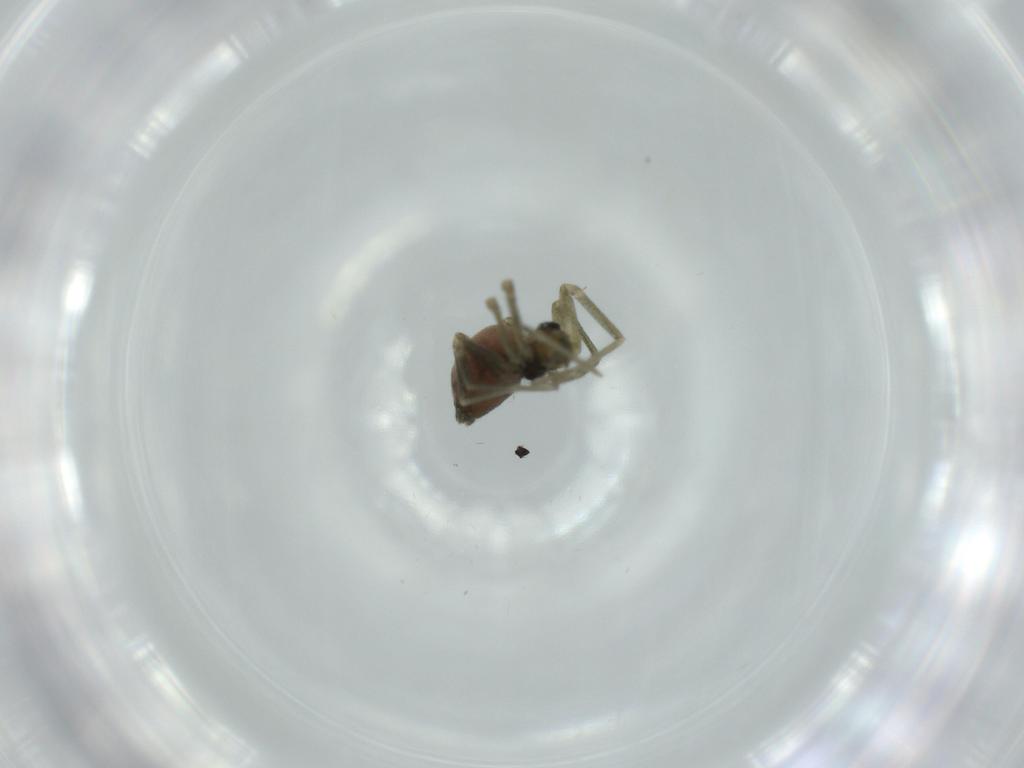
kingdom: Animalia
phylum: Arthropoda
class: Arachnida
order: Araneae
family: Linyphiidae
